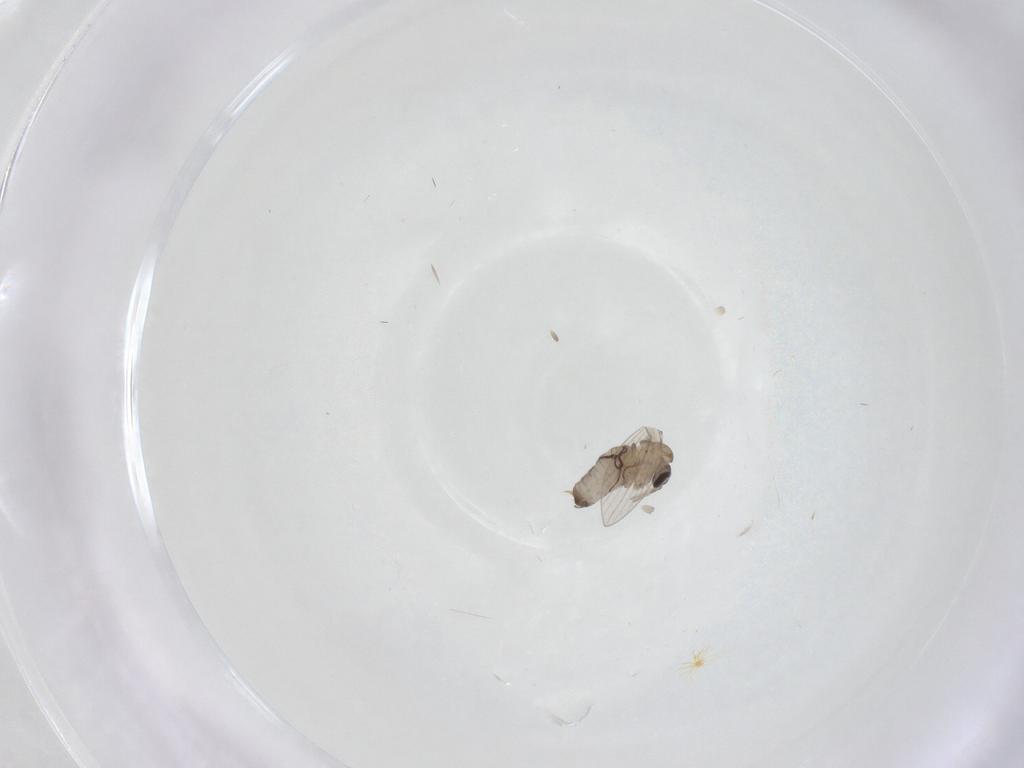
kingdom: Animalia
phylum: Arthropoda
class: Insecta
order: Diptera
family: Psychodidae
